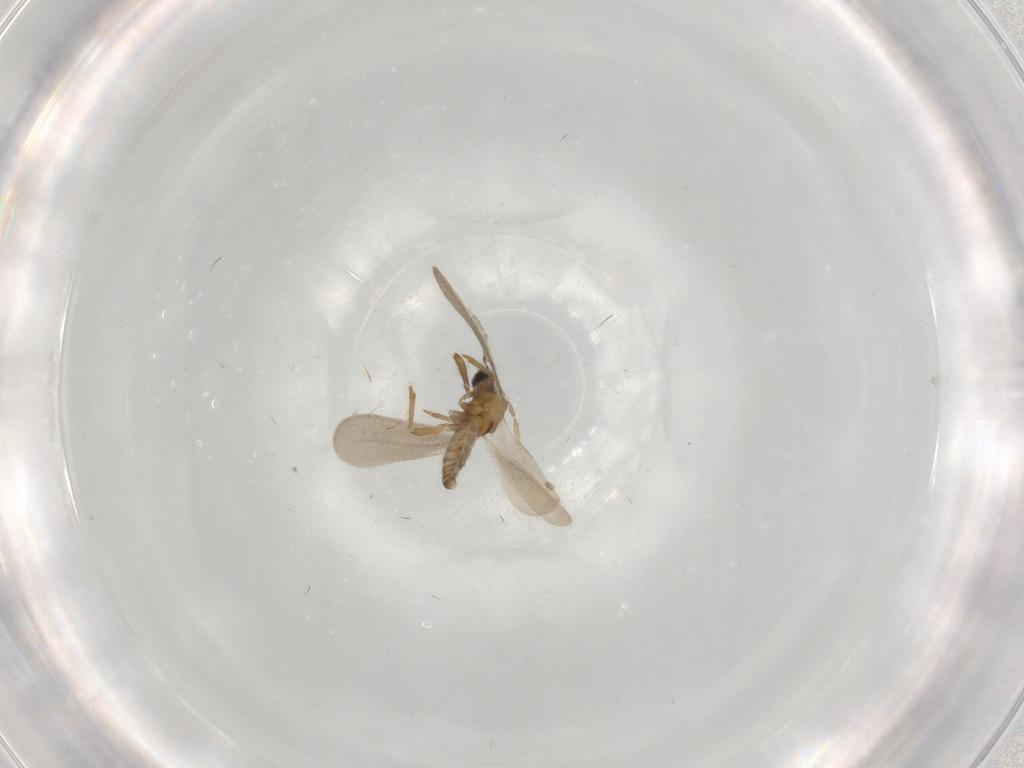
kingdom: Animalia
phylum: Arthropoda
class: Insecta
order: Hemiptera
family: Enicocephalidae
